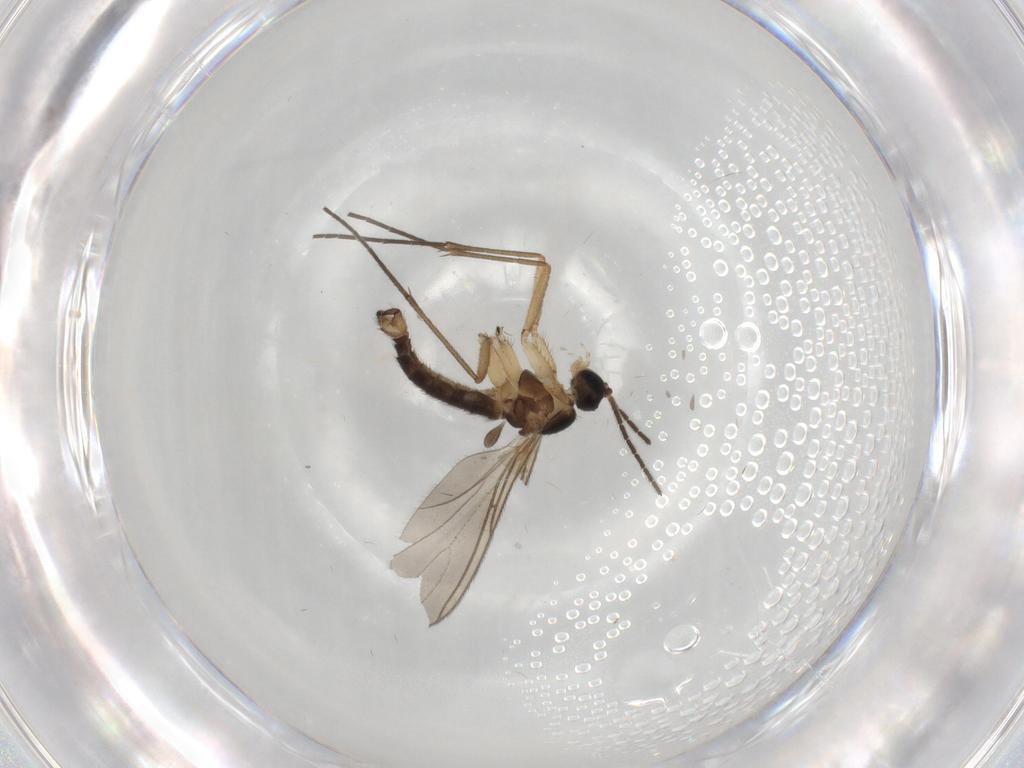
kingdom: Animalia
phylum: Arthropoda
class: Insecta
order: Diptera
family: Sciaridae
